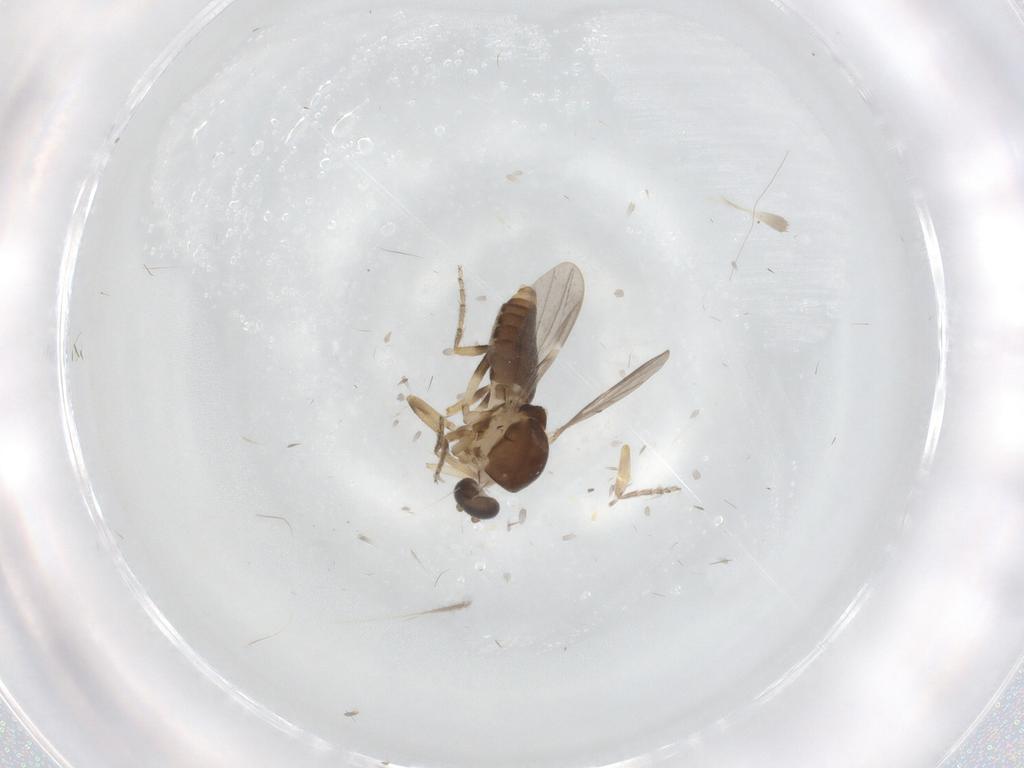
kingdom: Animalia
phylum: Arthropoda
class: Insecta
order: Diptera
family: Ceratopogonidae
